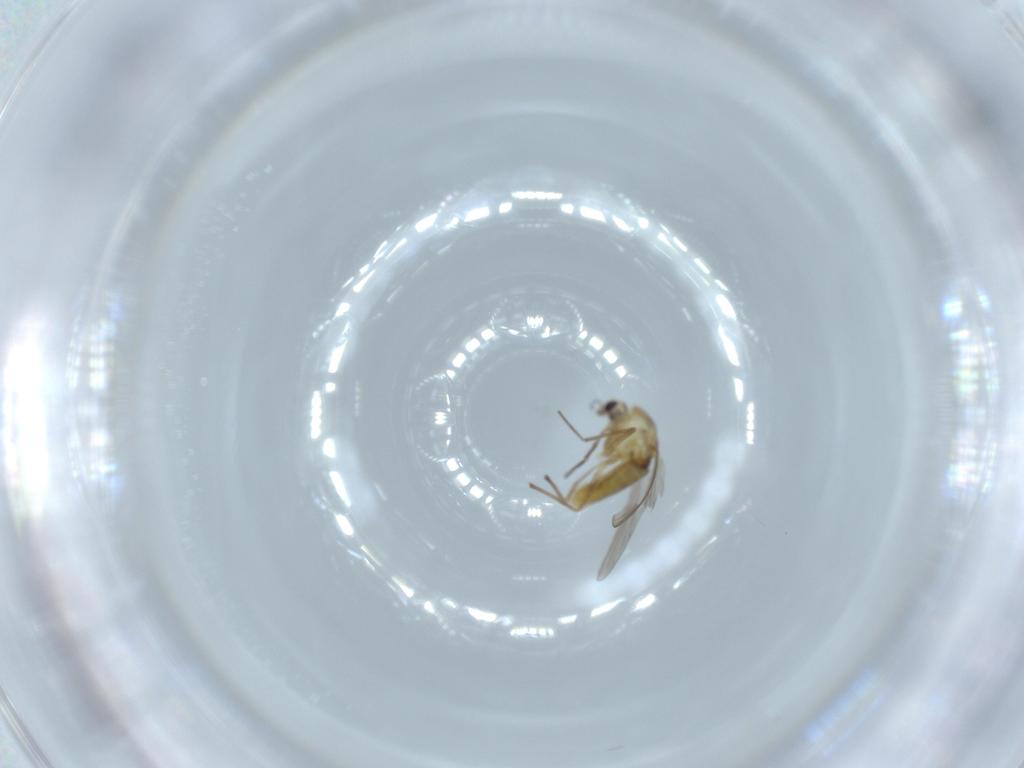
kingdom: Animalia
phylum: Arthropoda
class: Insecta
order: Diptera
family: Chironomidae
